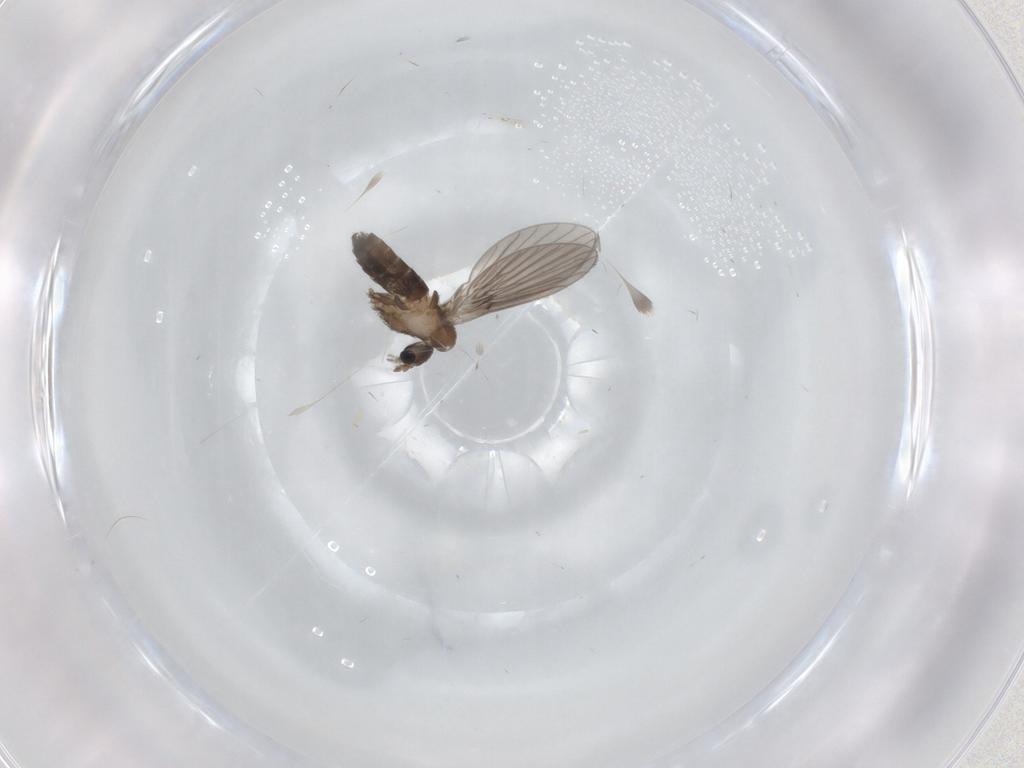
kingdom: Animalia
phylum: Arthropoda
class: Insecta
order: Diptera
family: Psychodidae
